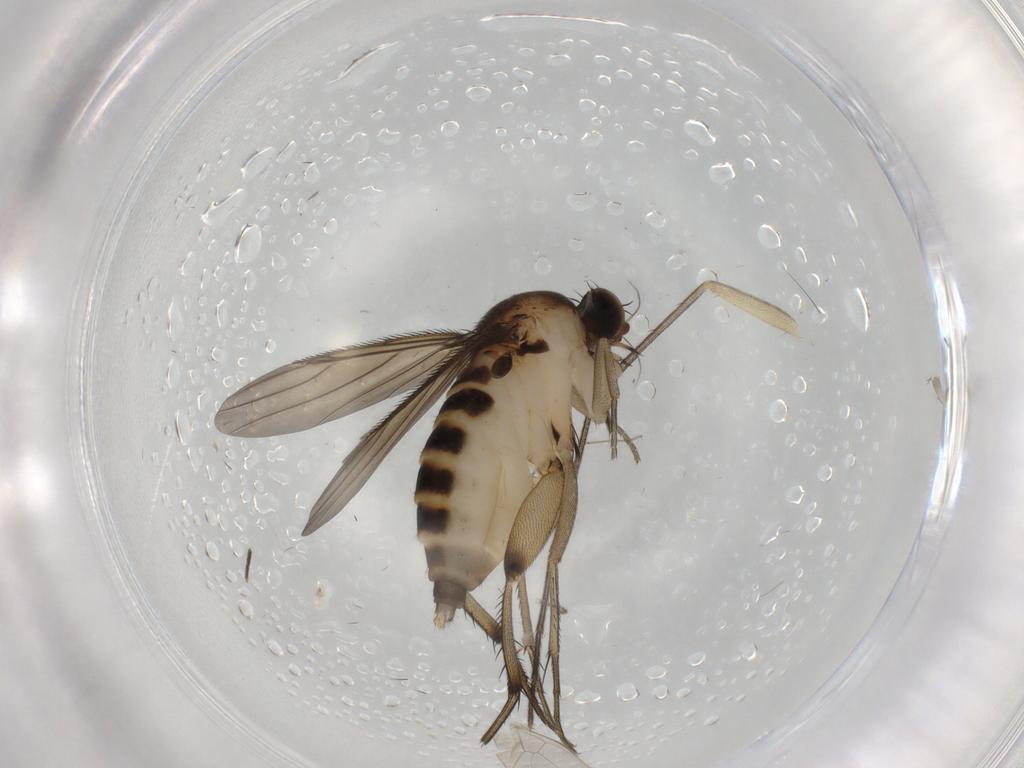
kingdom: Animalia
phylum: Arthropoda
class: Insecta
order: Diptera
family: Phoridae
